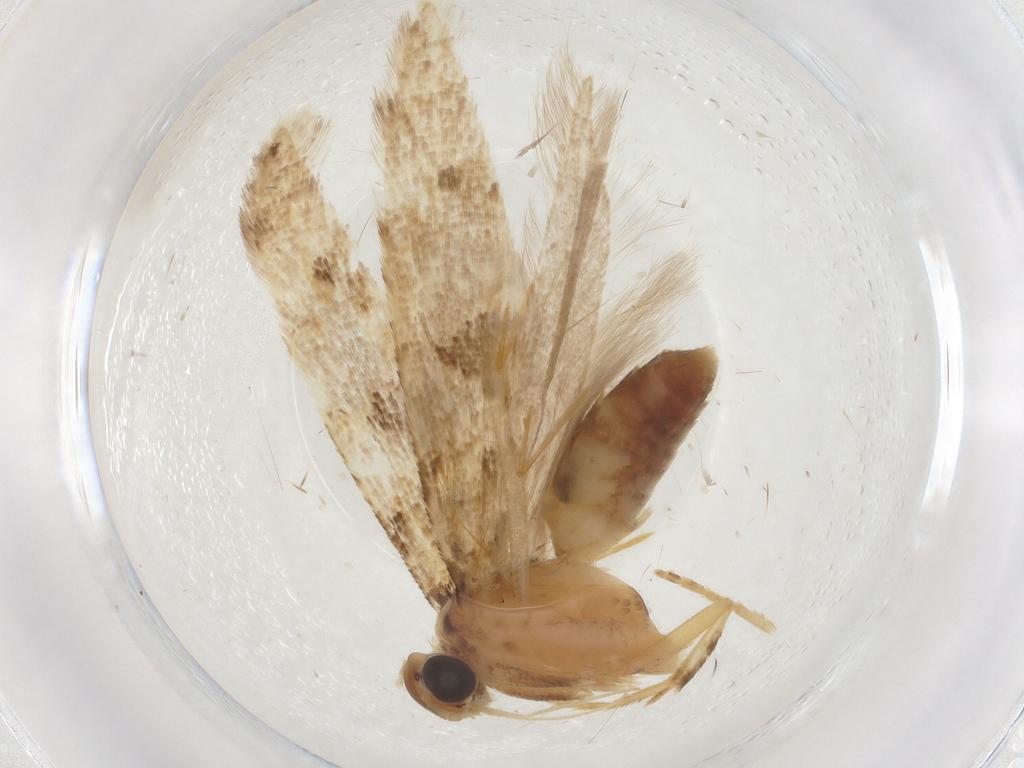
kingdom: Animalia
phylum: Arthropoda
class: Insecta
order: Lepidoptera
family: Gelechiidae
